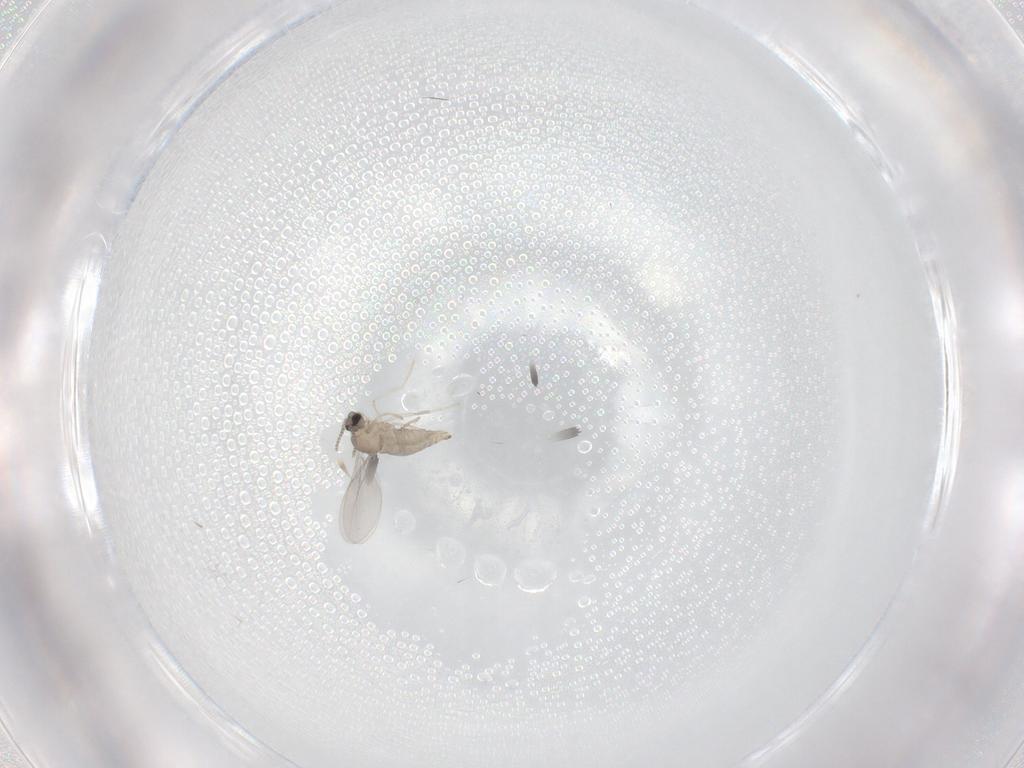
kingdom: Animalia
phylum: Arthropoda
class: Insecta
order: Diptera
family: Cecidomyiidae
